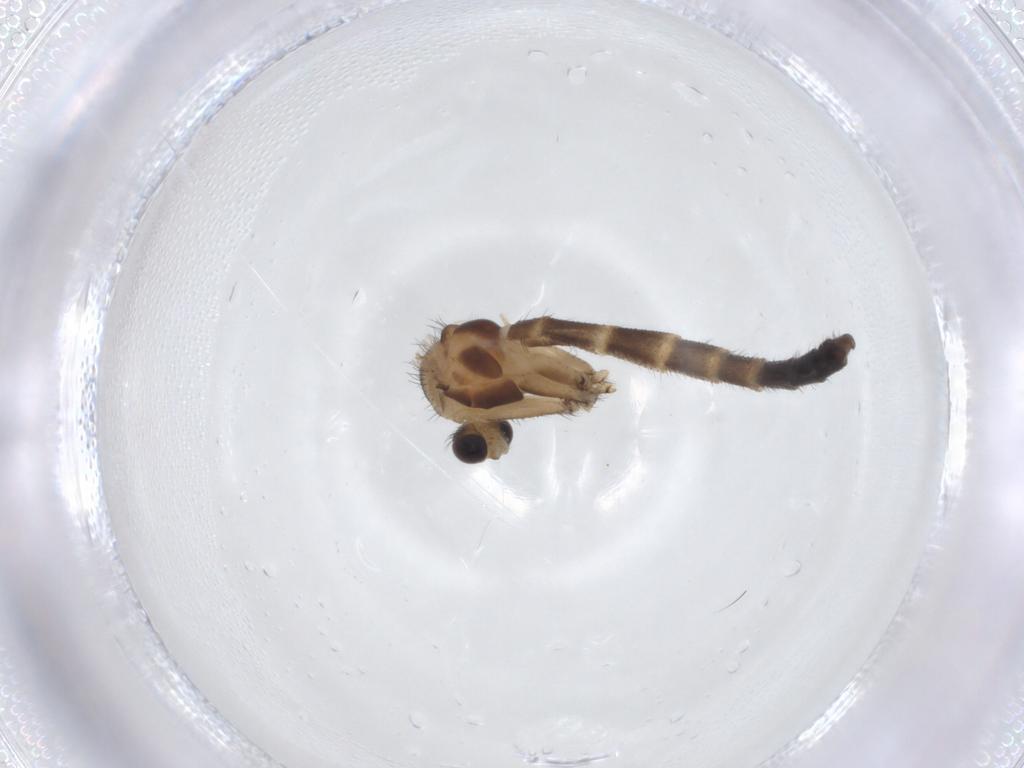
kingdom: Animalia
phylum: Arthropoda
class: Insecta
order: Diptera
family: Keroplatidae
